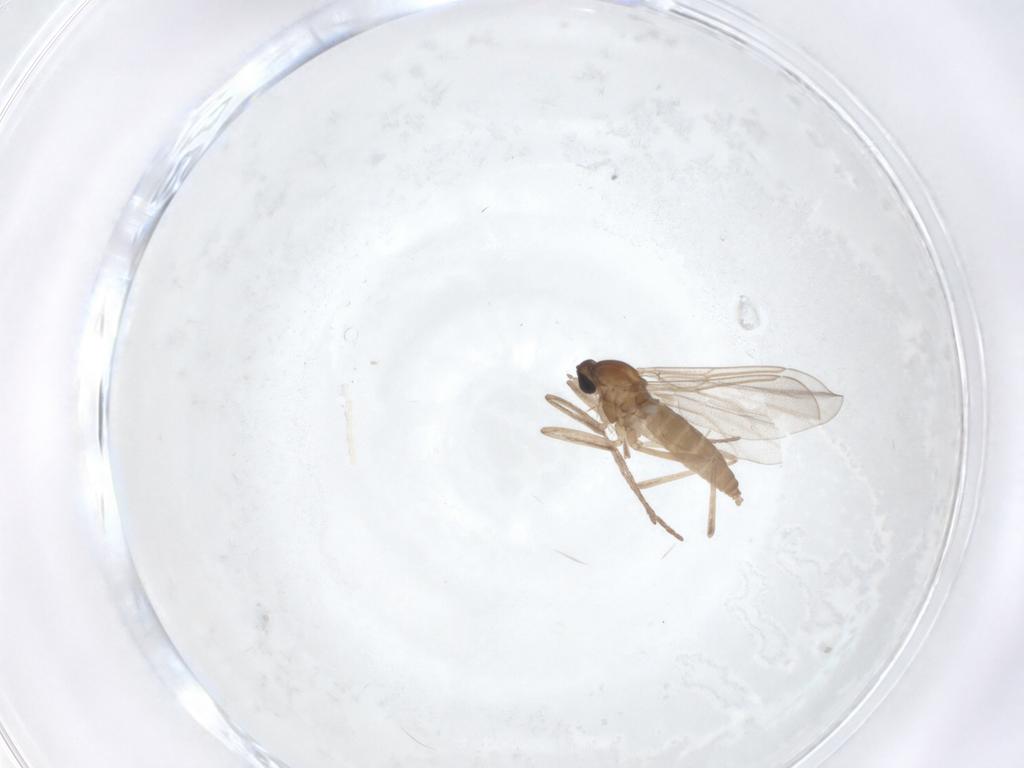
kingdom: Animalia
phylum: Arthropoda
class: Insecta
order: Diptera
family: Cecidomyiidae
